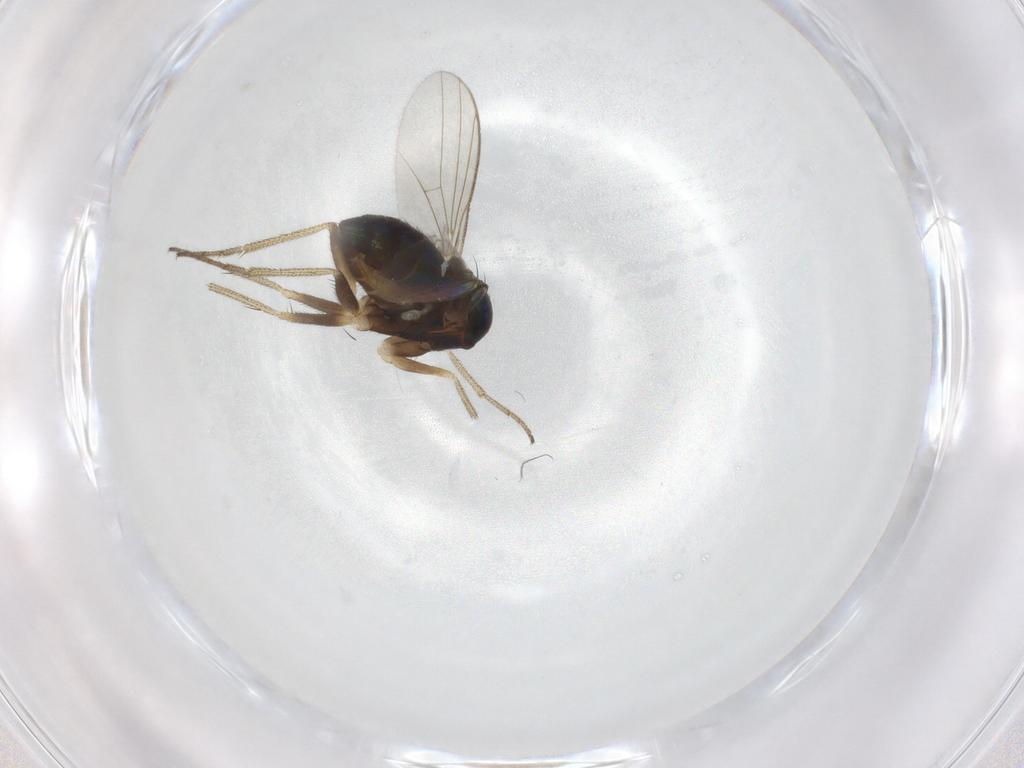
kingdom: Animalia
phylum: Arthropoda
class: Insecta
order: Diptera
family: Dolichopodidae
